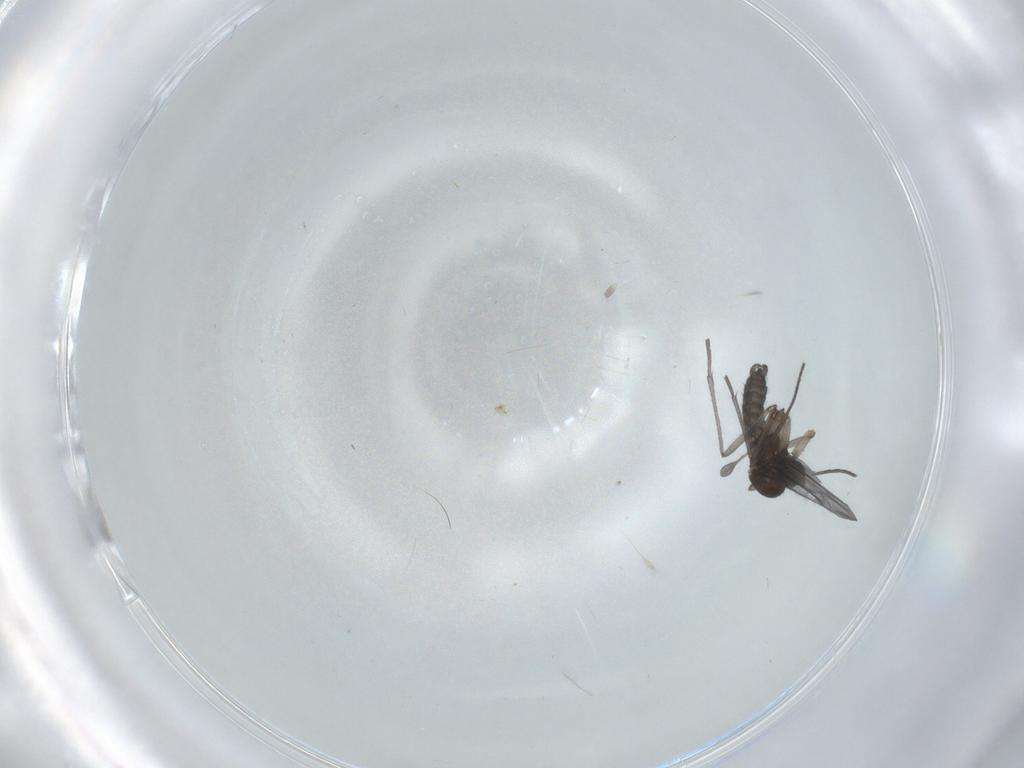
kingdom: Animalia
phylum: Arthropoda
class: Insecta
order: Diptera
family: Sciaridae
